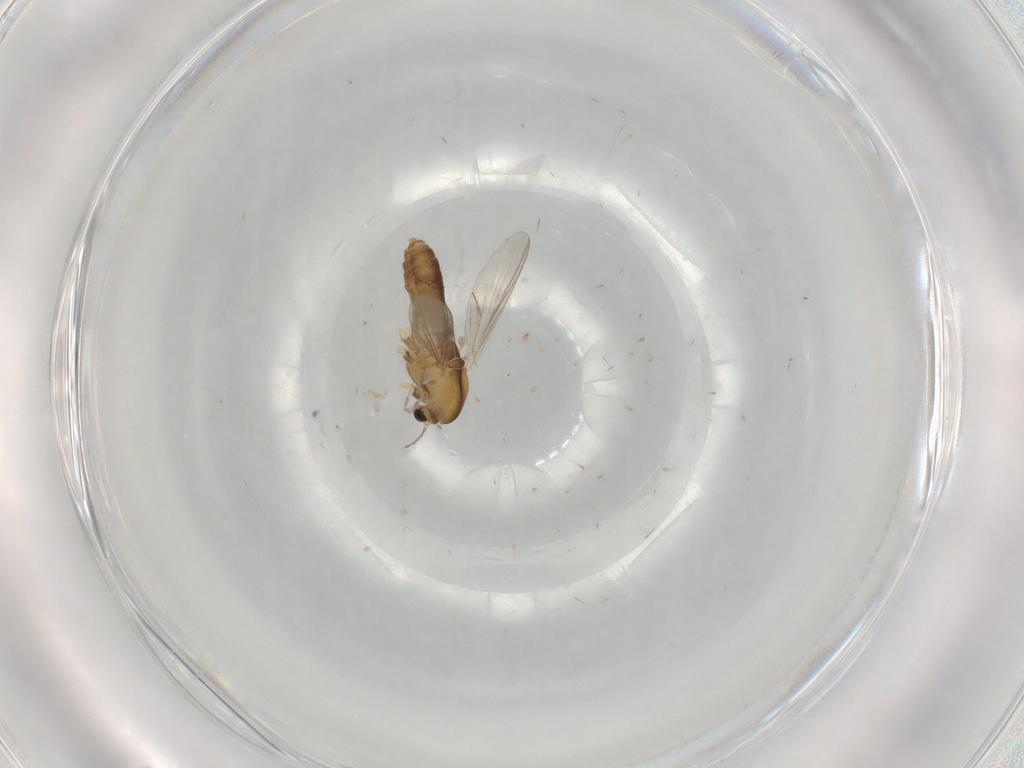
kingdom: Animalia
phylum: Arthropoda
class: Insecta
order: Diptera
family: Chironomidae
